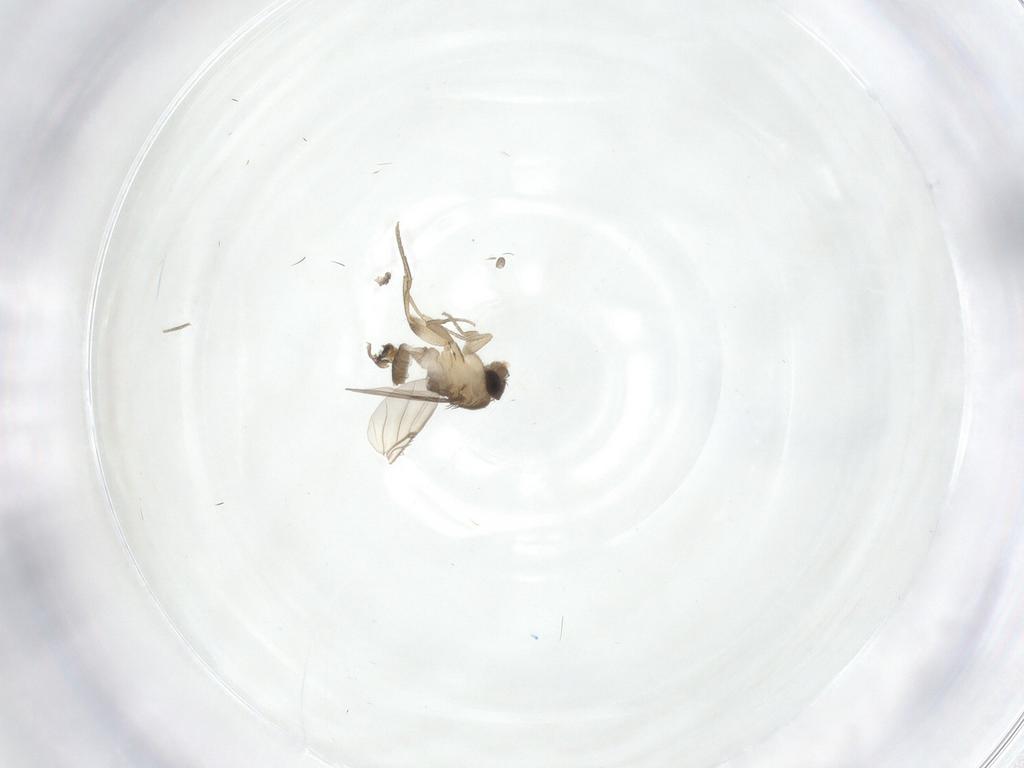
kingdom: Animalia
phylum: Arthropoda
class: Insecta
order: Diptera
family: Phoridae
